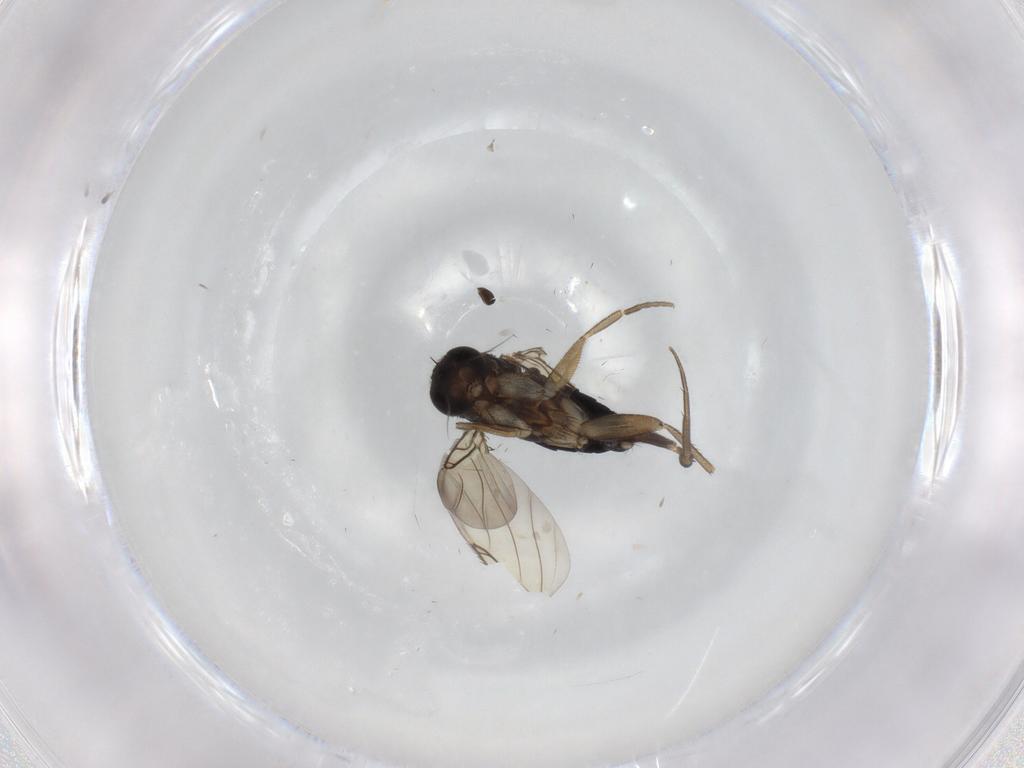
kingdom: Animalia
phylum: Arthropoda
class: Insecta
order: Diptera
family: Phoridae
